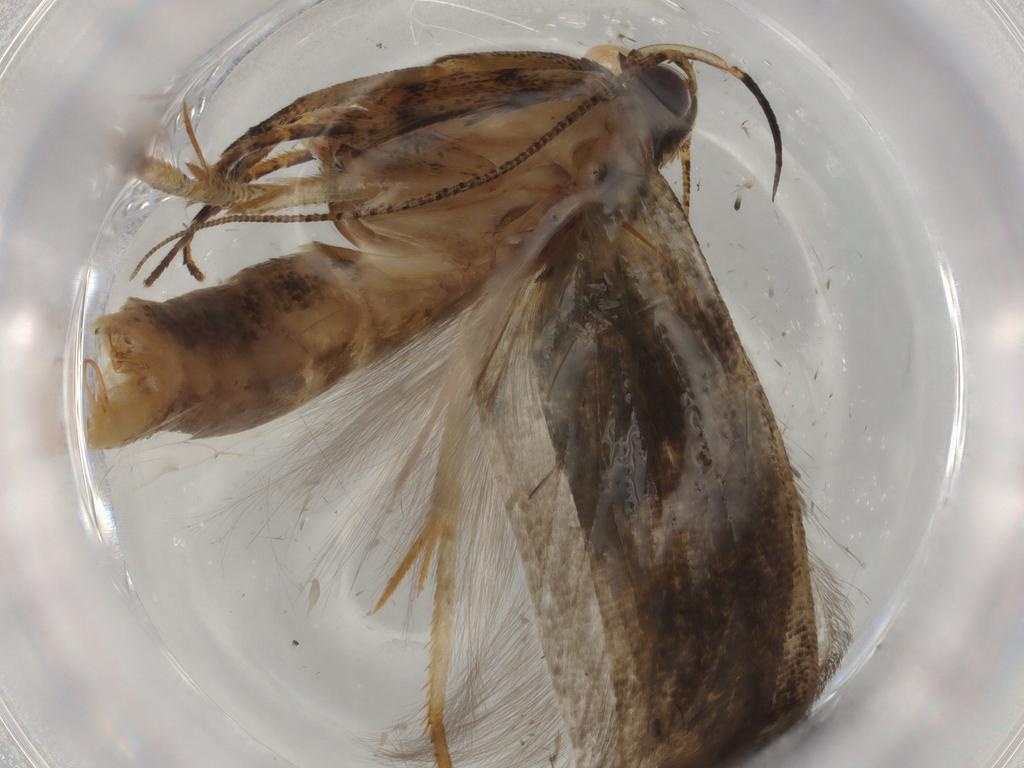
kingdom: Animalia
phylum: Arthropoda
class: Insecta
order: Lepidoptera
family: Gelechiidae
